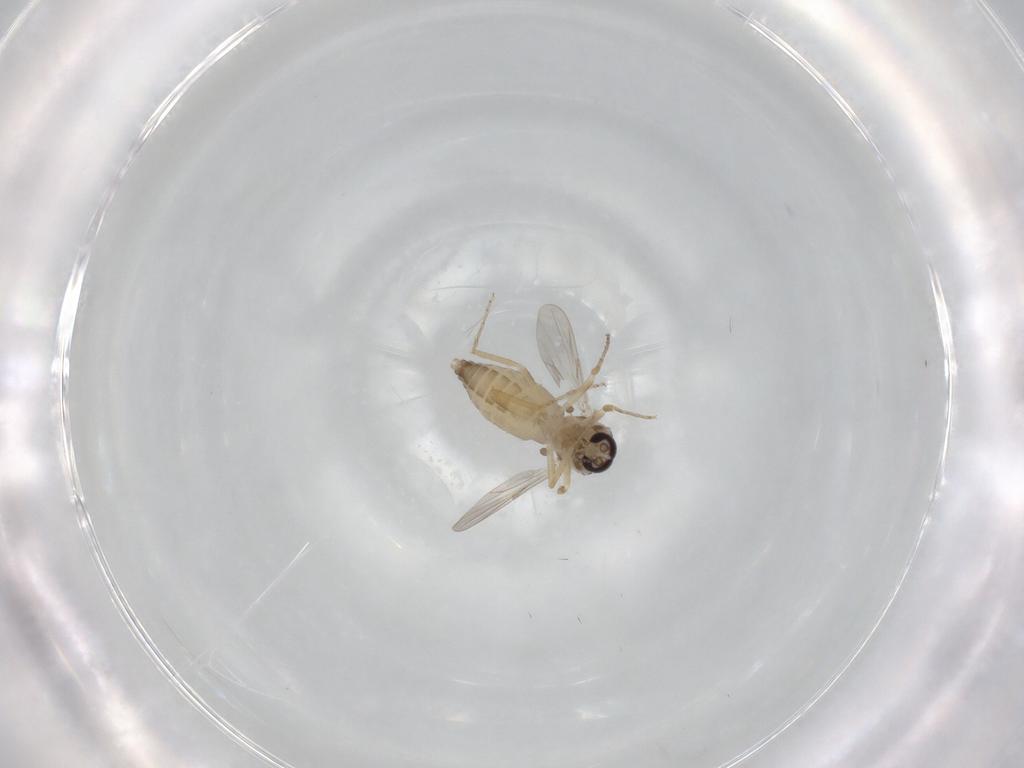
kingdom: Animalia
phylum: Arthropoda
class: Insecta
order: Diptera
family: Ceratopogonidae
